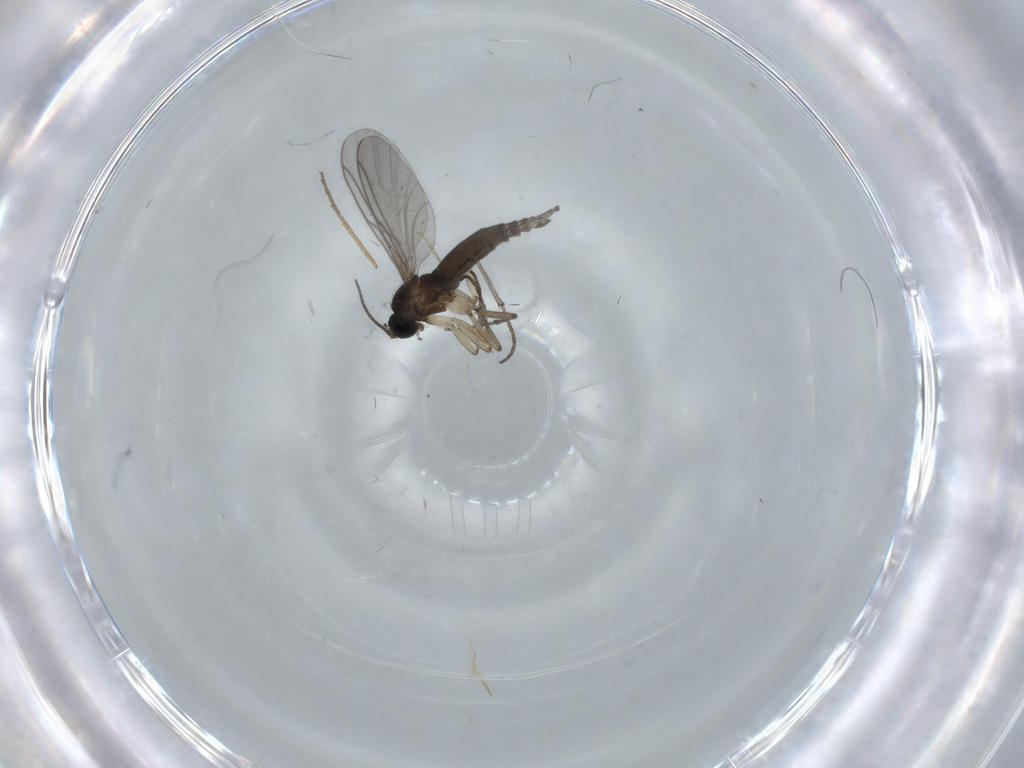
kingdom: Animalia
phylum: Arthropoda
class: Insecta
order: Diptera
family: Sciaridae
